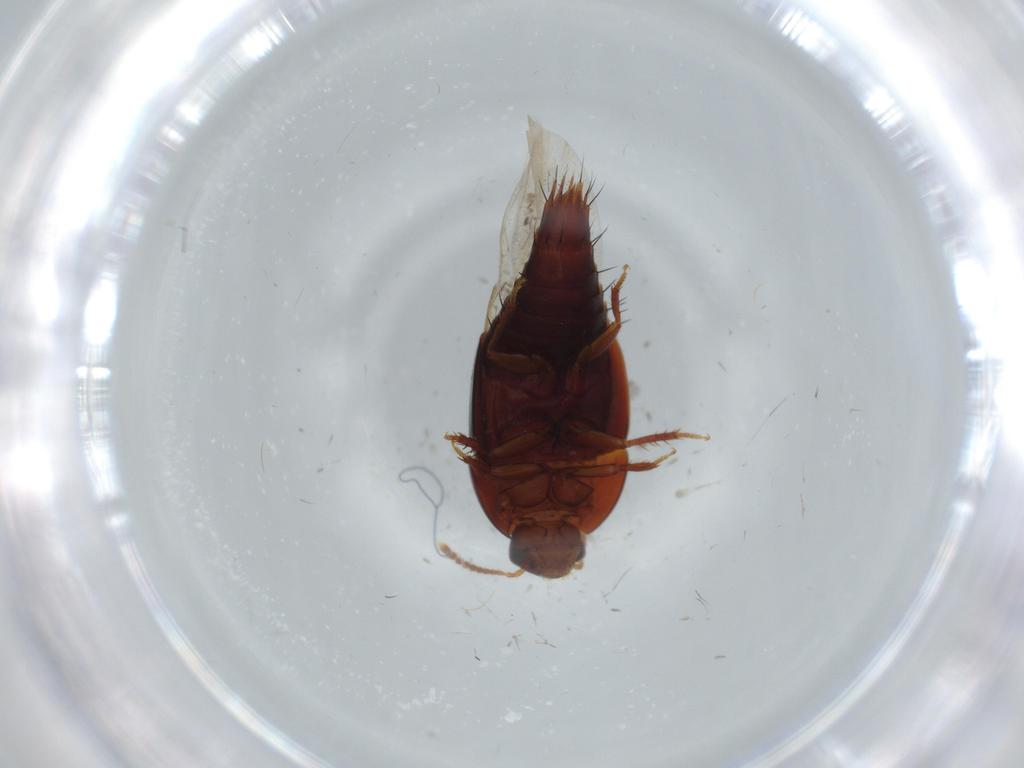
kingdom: Animalia
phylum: Arthropoda
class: Insecta
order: Coleoptera
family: Staphylinidae
